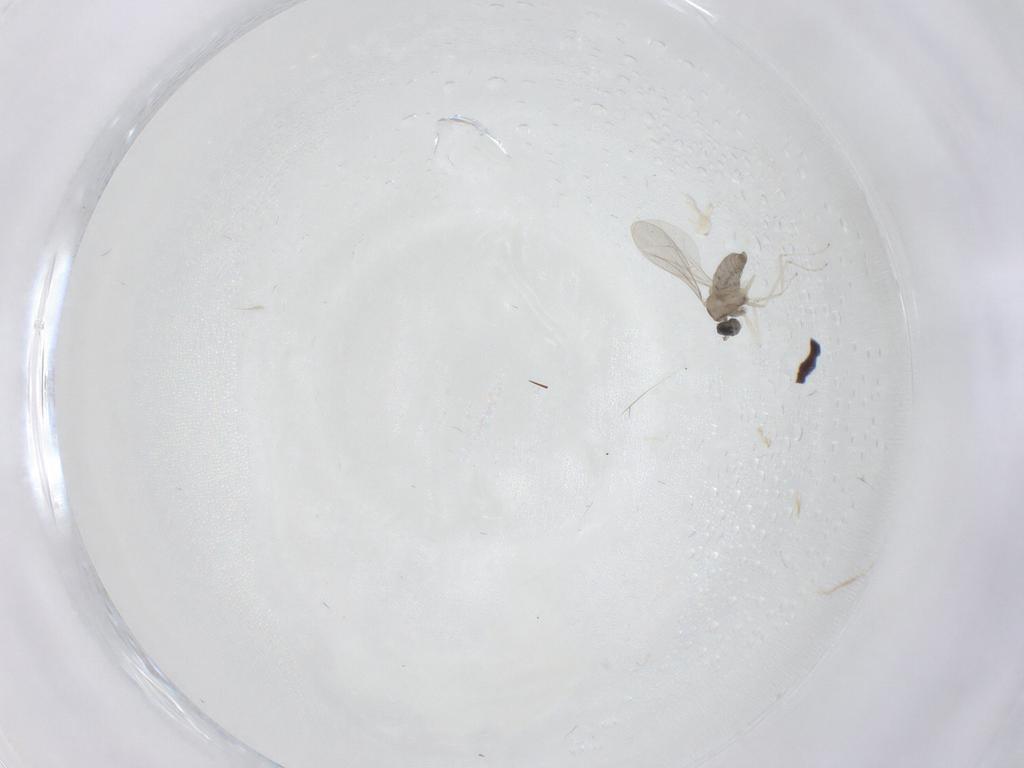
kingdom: Animalia
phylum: Arthropoda
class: Insecta
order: Diptera
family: Cecidomyiidae
